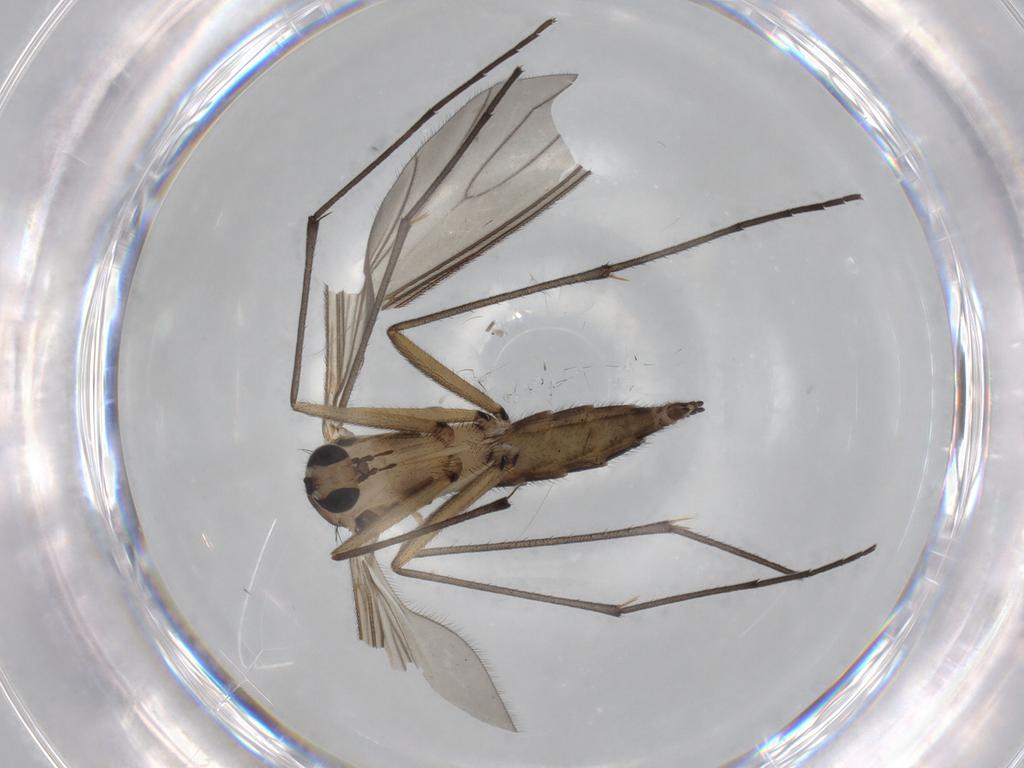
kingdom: Animalia
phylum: Arthropoda
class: Insecta
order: Diptera
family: Sciaridae
